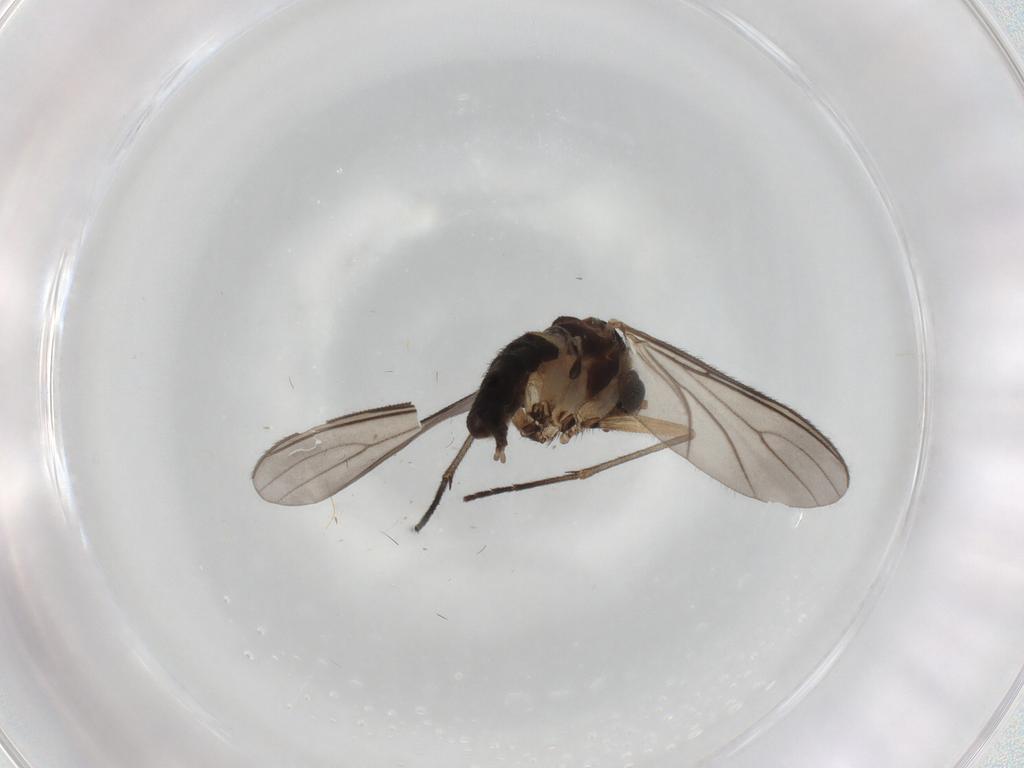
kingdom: Animalia
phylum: Arthropoda
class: Insecta
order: Diptera
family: Sciaridae
